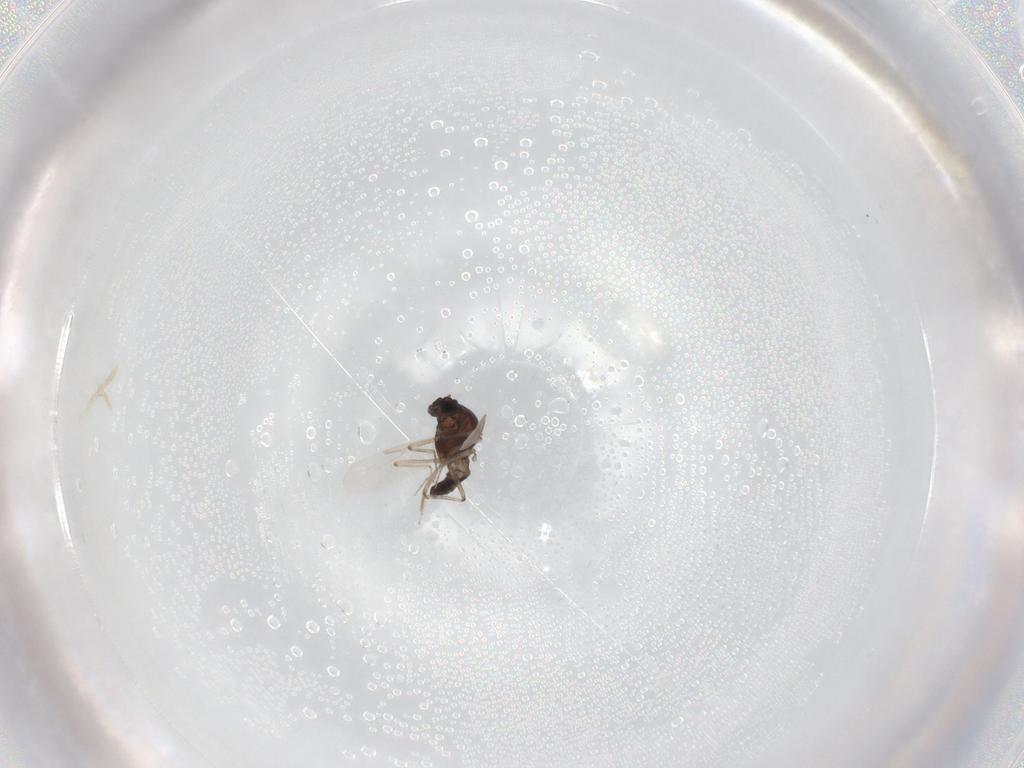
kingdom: Animalia
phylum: Arthropoda
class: Insecta
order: Diptera
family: Ceratopogonidae
